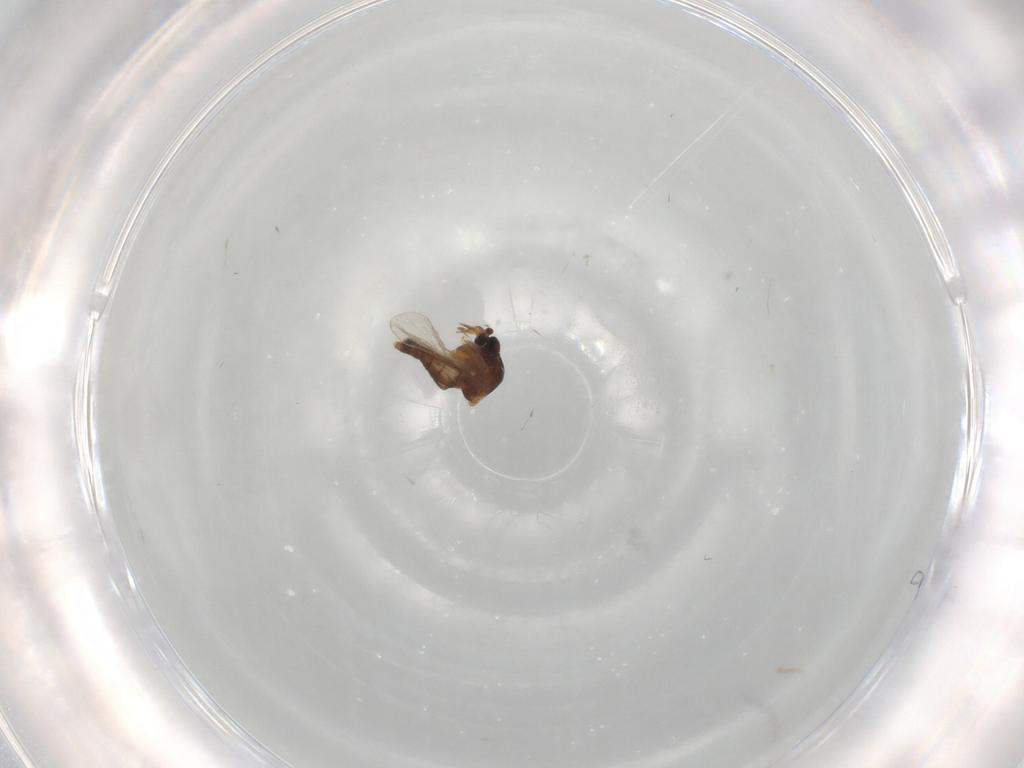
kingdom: Animalia
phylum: Arthropoda
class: Insecta
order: Diptera
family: Ceratopogonidae
